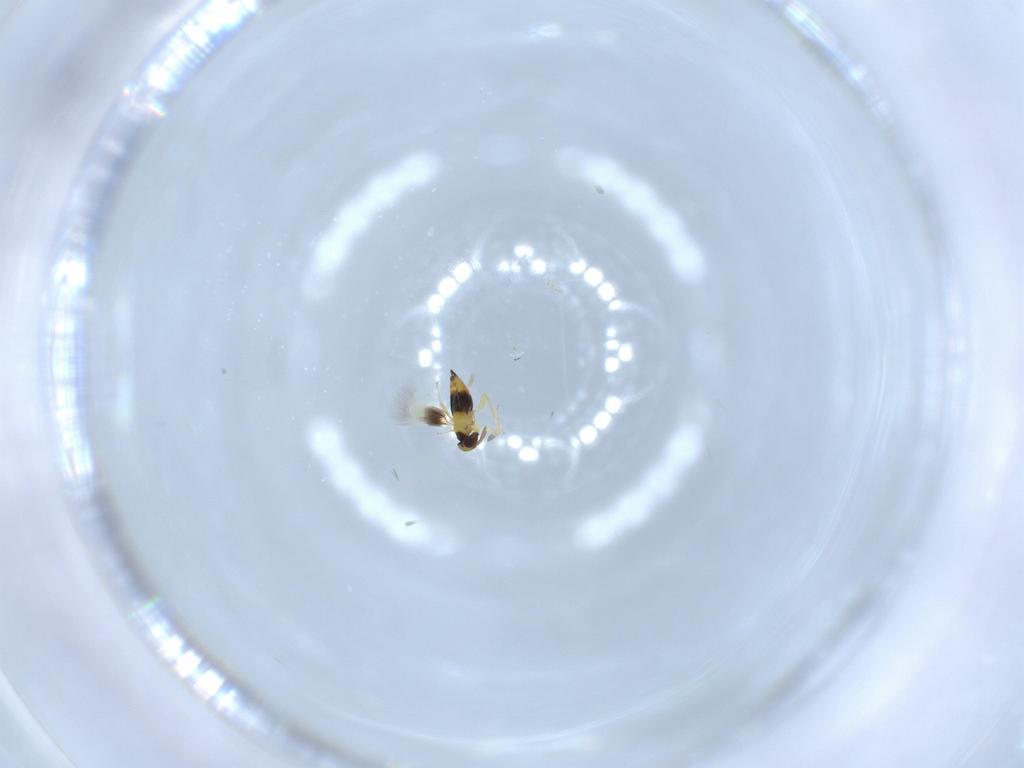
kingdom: Animalia
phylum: Arthropoda
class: Insecta
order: Hymenoptera
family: Signiphoridae
